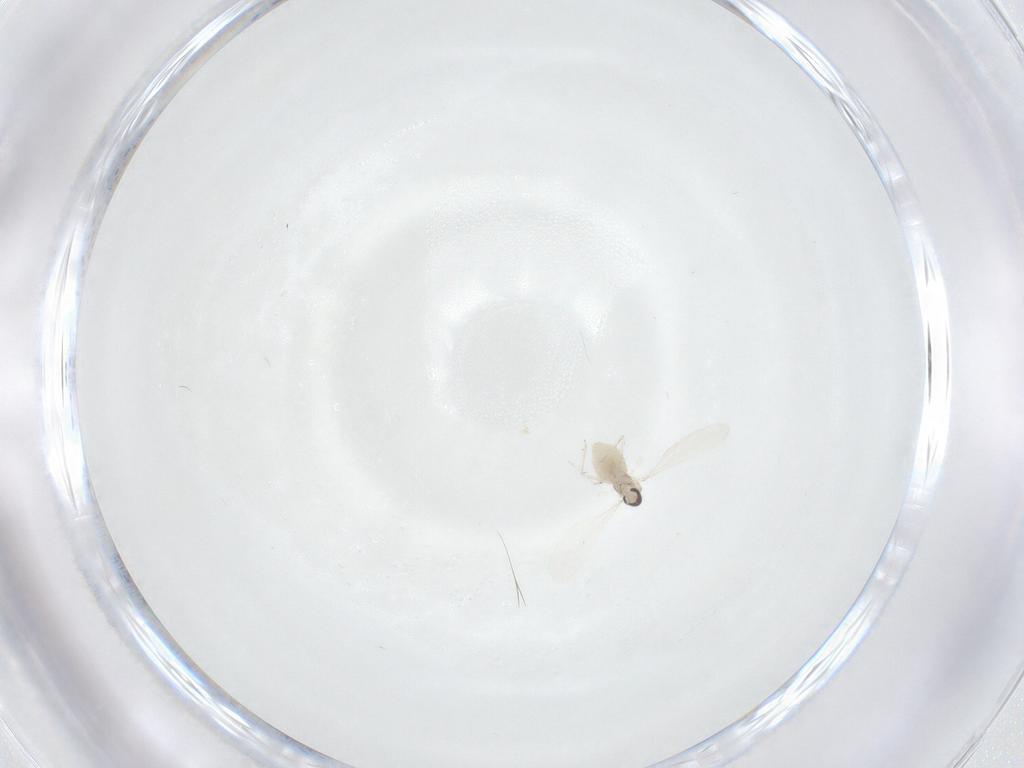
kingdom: Animalia
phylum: Arthropoda
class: Insecta
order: Diptera
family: Cecidomyiidae
